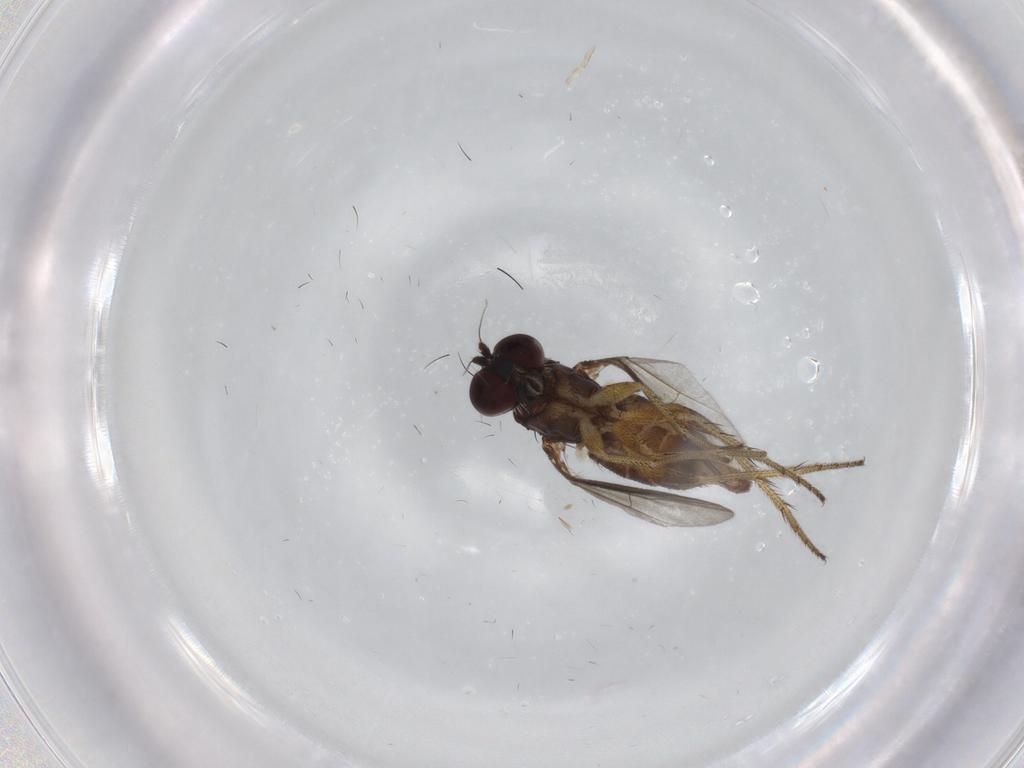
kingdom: Animalia
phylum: Arthropoda
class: Insecta
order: Diptera
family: Dolichopodidae
